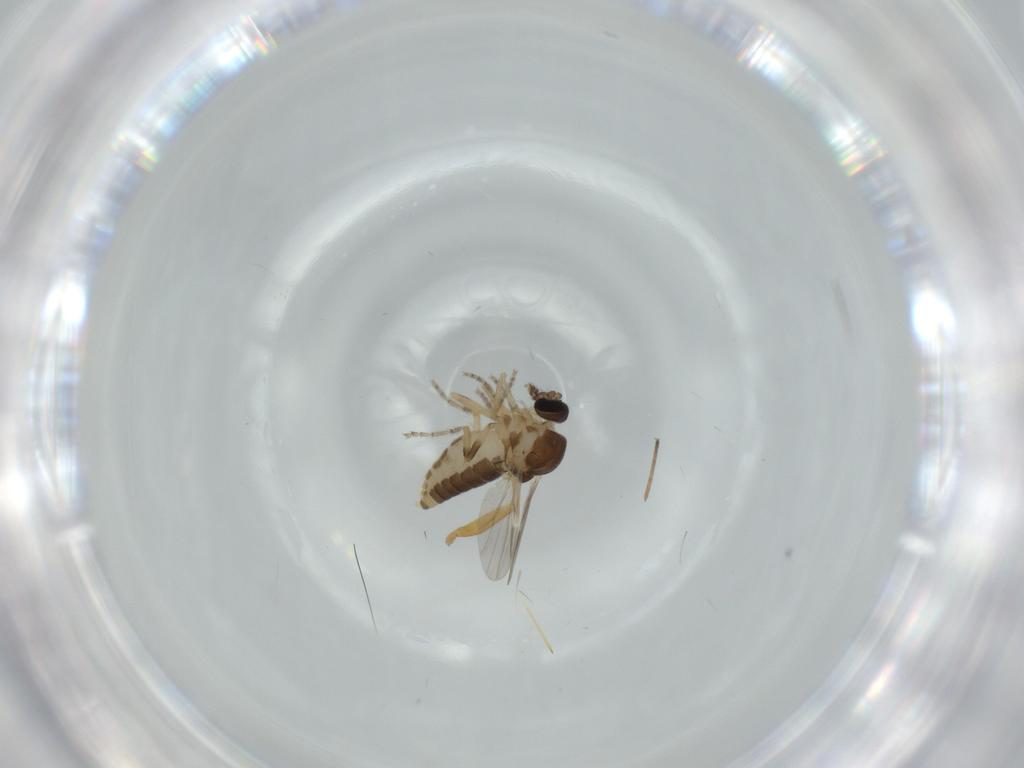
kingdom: Animalia
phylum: Arthropoda
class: Insecta
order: Diptera
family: Ceratopogonidae
